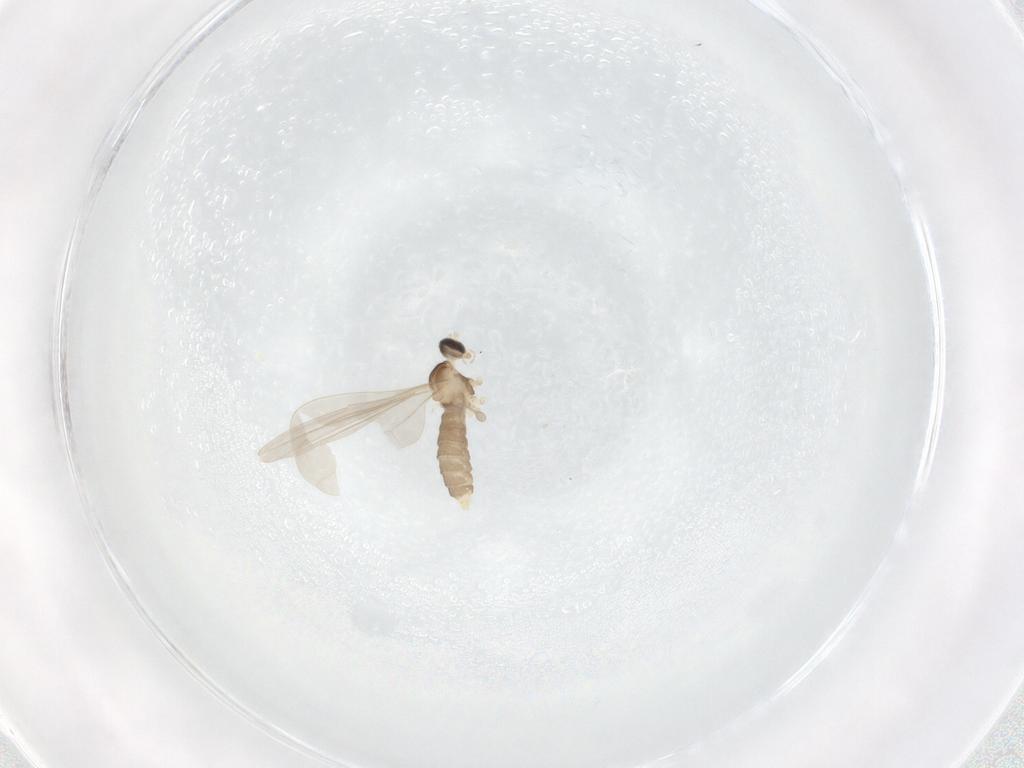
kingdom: Animalia
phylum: Arthropoda
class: Insecta
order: Diptera
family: Cecidomyiidae
